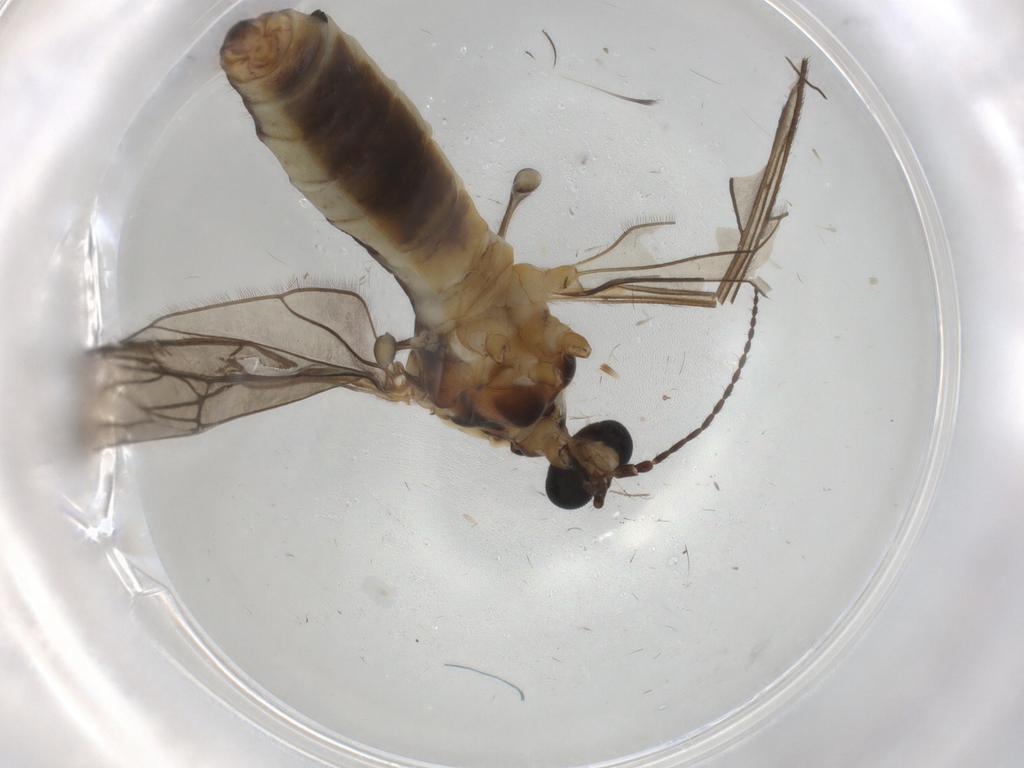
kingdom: Animalia
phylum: Arthropoda
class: Insecta
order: Diptera
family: Limoniidae
